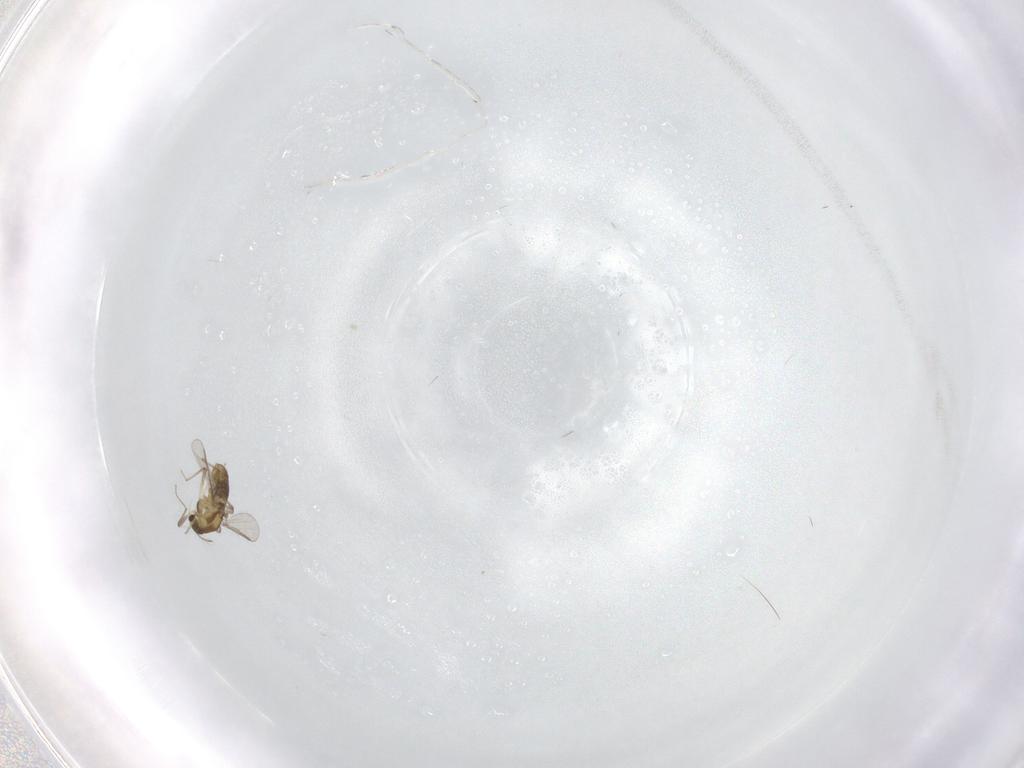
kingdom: Animalia
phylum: Arthropoda
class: Insecta
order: Diptera
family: Chironomidae
